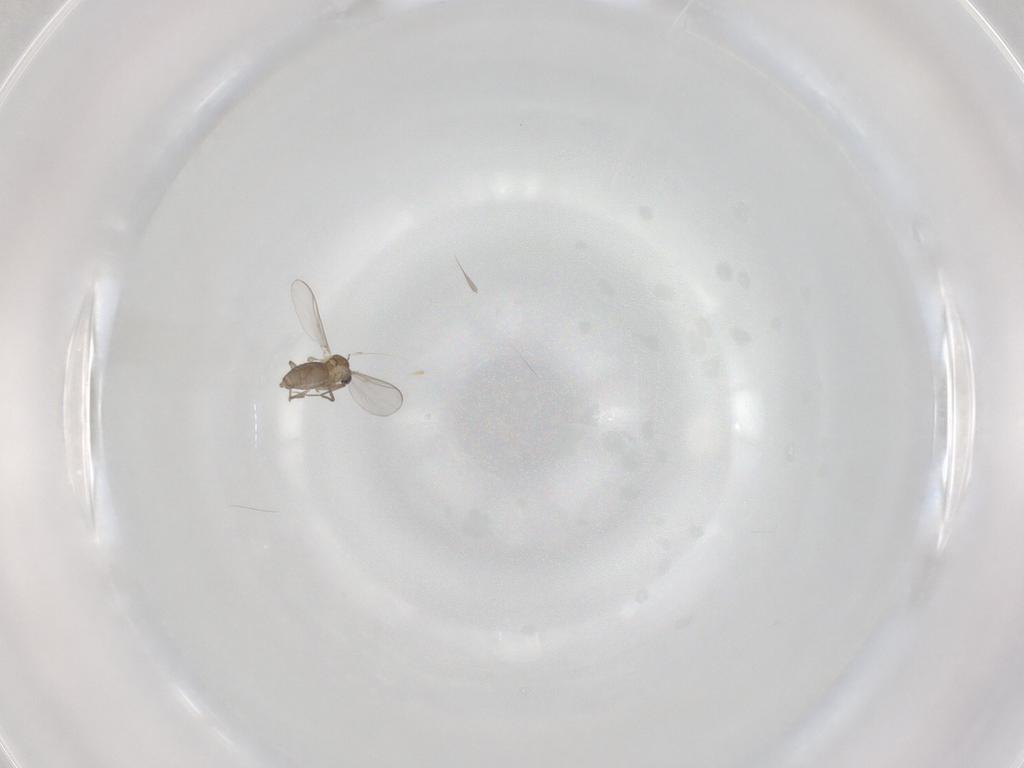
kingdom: Animalia
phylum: Arthropoda
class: Insecta
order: Diptera
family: Chironomidae
